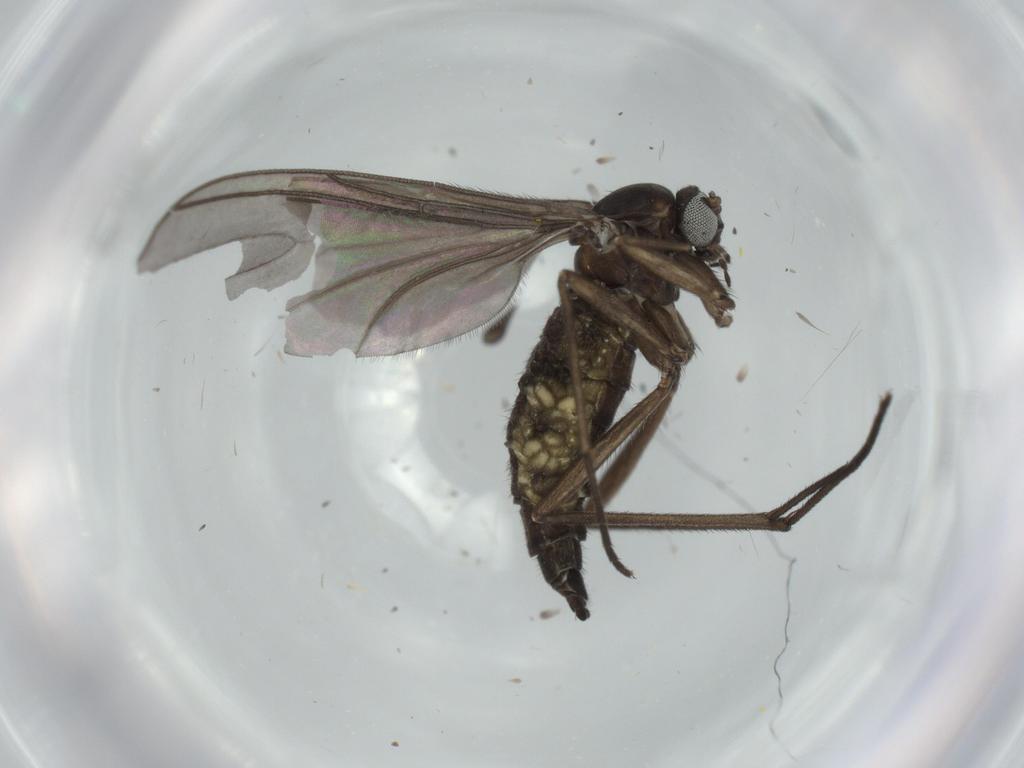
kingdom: Animalia
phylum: Arthropoda
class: Insecta
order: Diptera
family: Sciaridae
